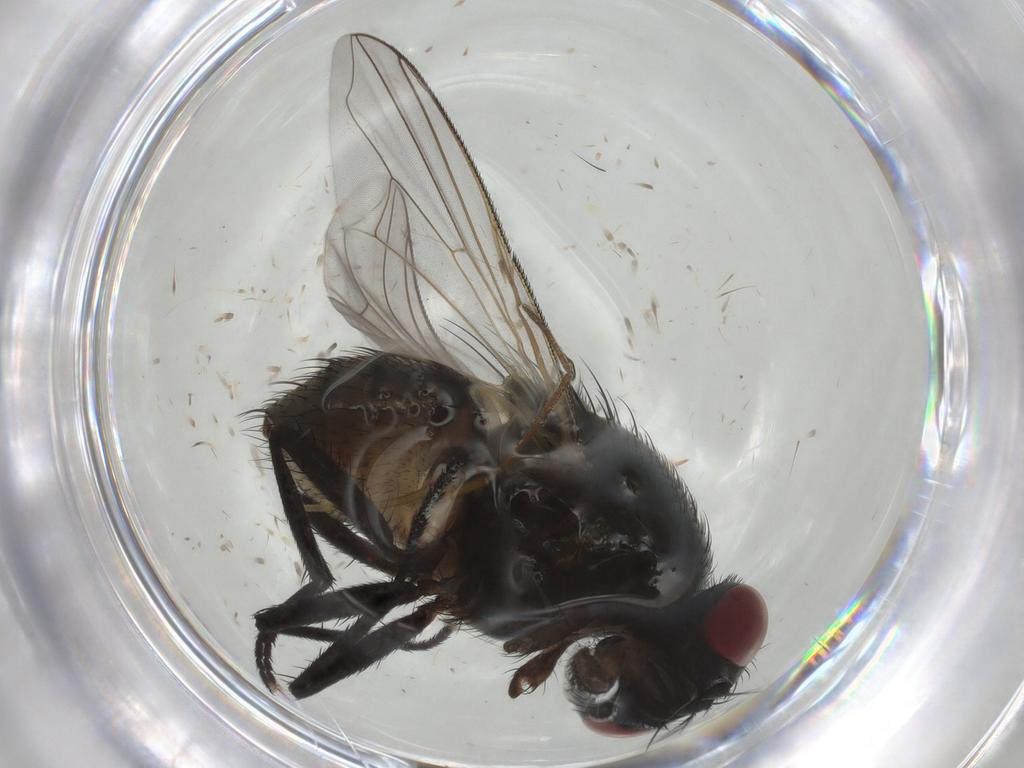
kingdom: Animalia
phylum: Arthropoda
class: Insecta
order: Diptera
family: Muscidae
